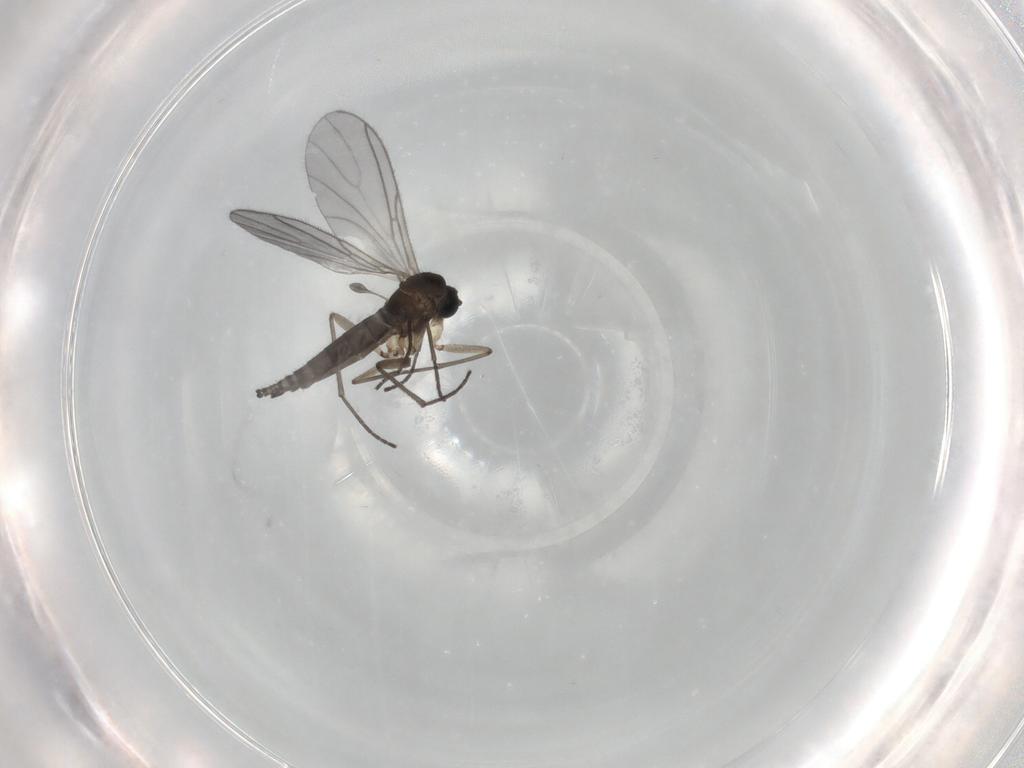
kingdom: Animalia
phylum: Arthropoda
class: Insecta
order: Diptera
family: Sciaridae
